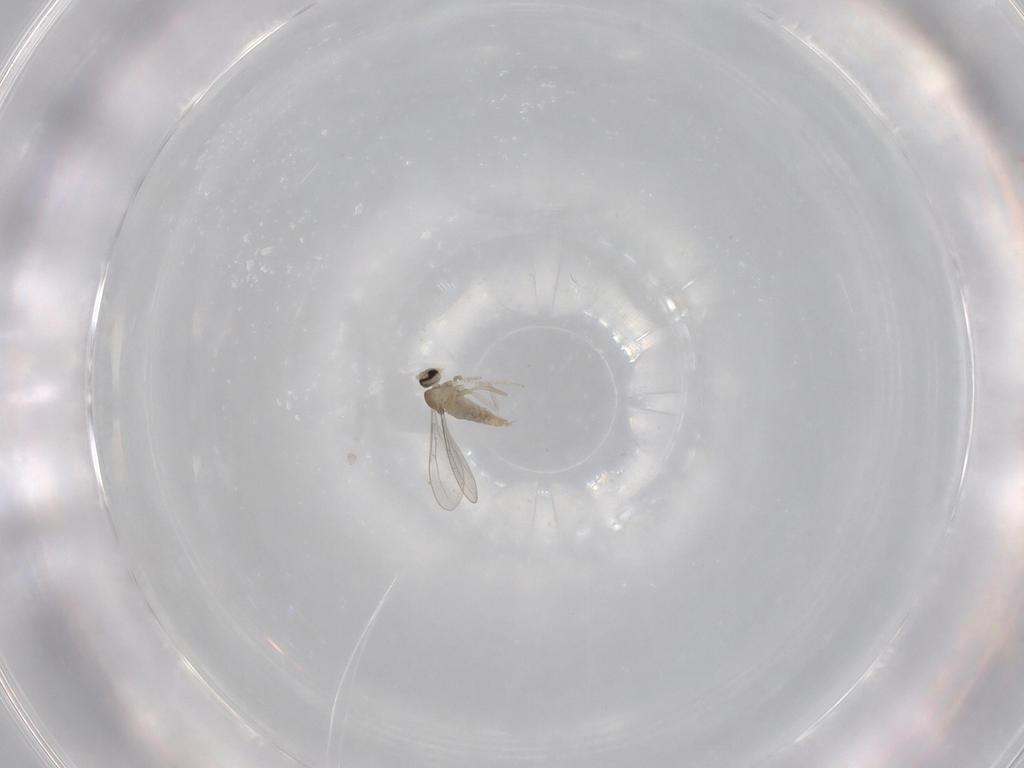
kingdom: Animalia
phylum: Arthropoda
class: Insecta
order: Diptera
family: Cecidomyiidae
